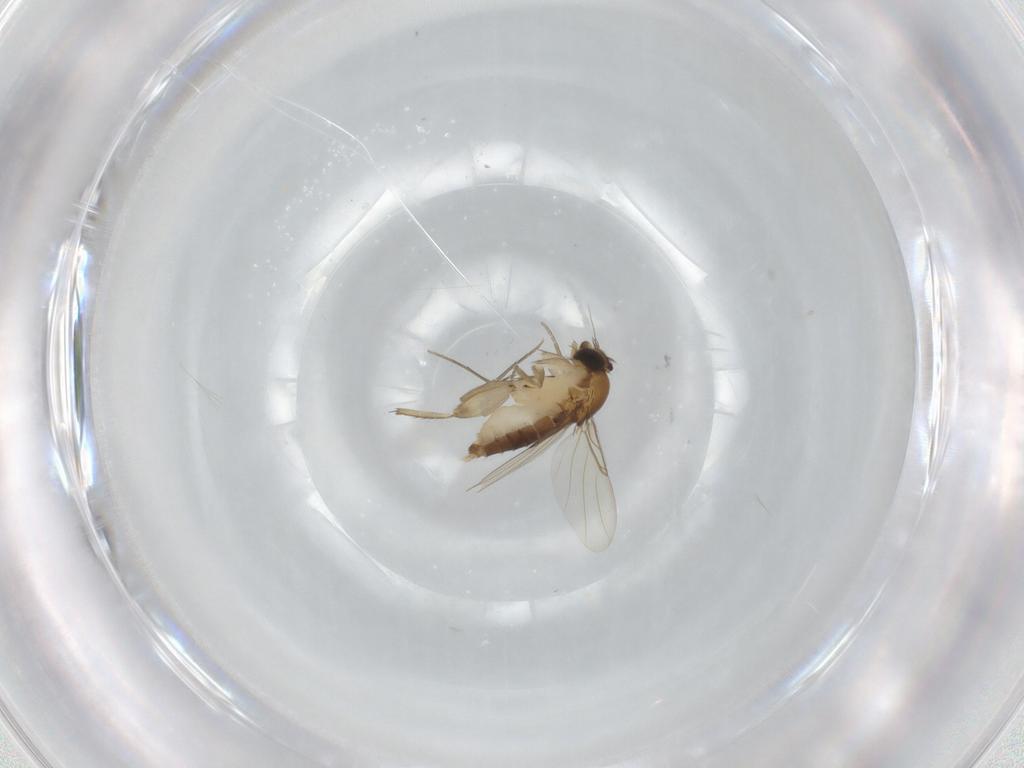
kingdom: Animalia
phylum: Arthropoda
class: Insecta
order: Diptera
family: Phoridae
